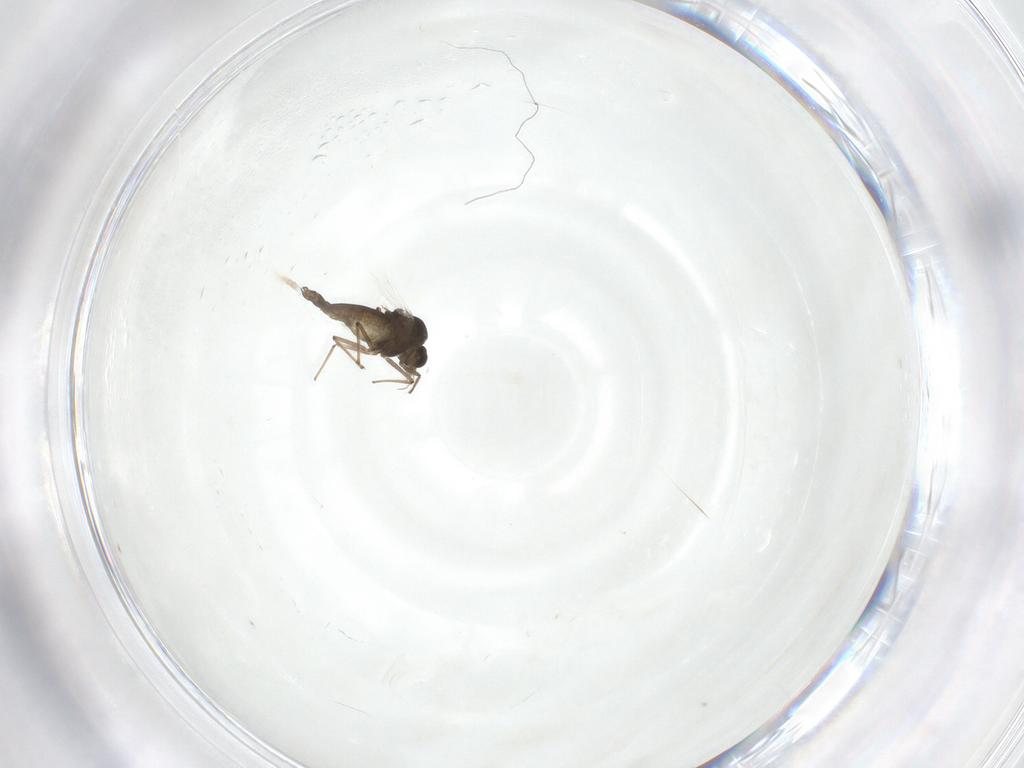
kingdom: Animalia
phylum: Arthropoda
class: Insecta
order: Diptera
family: Chironomidae
